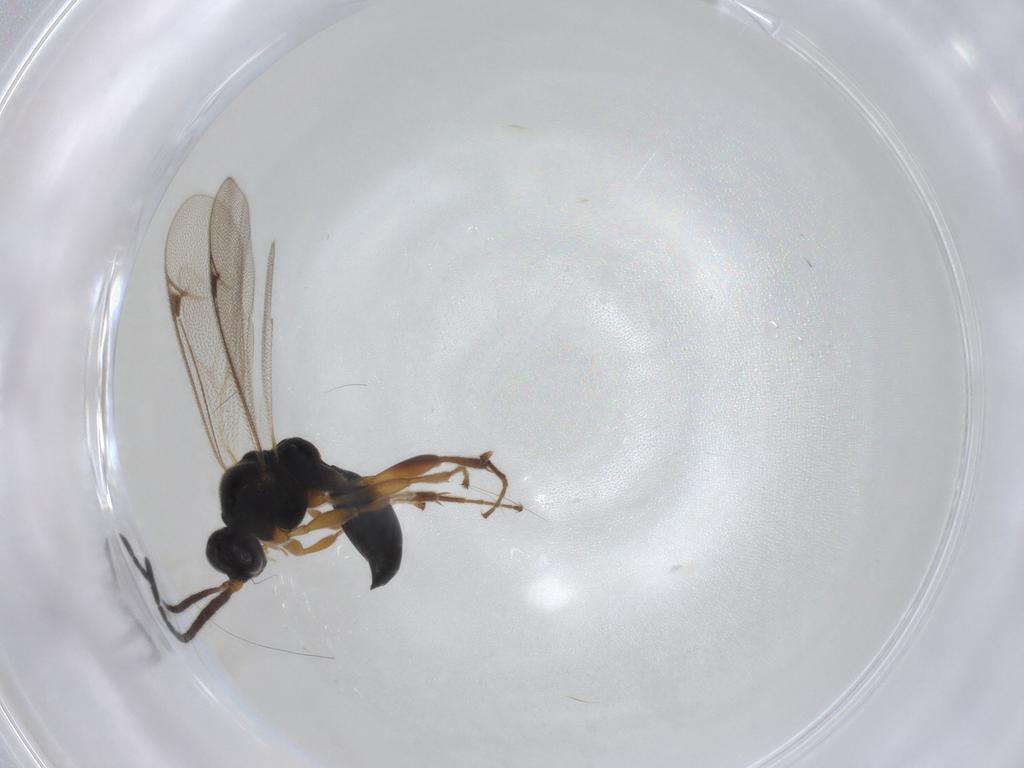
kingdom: Animalia
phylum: Arthropoda
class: Insecta
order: Hymenoptera
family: Proctotrupidae
